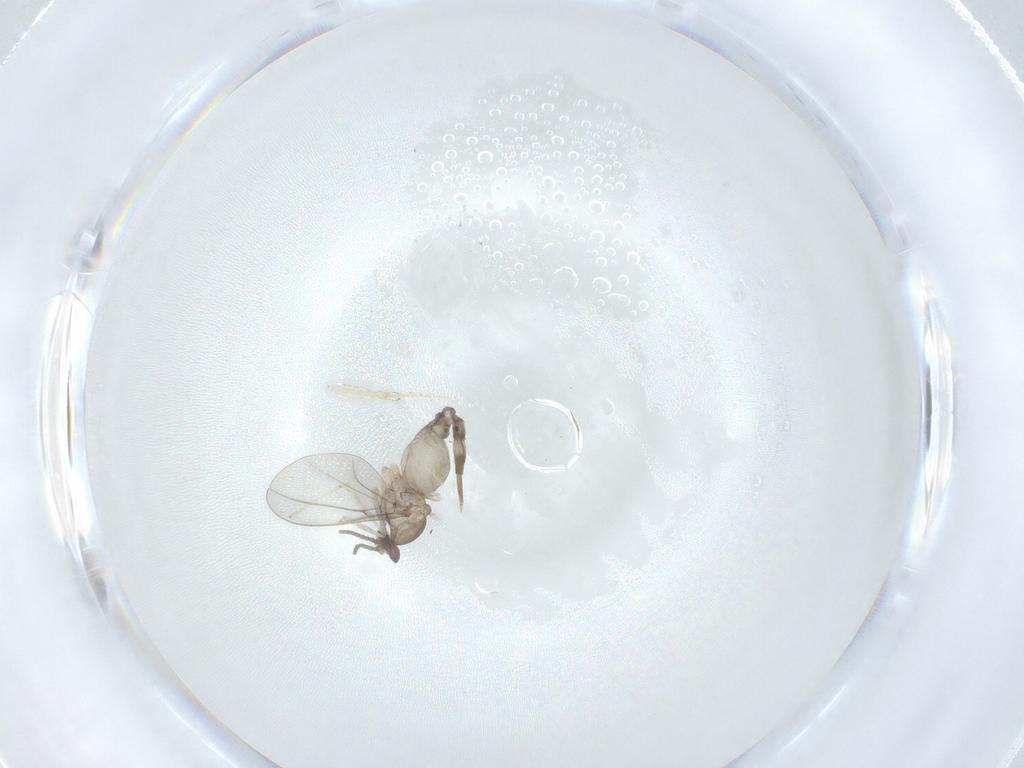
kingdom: Animalia
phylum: Arthropoda
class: Insecta
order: Diptera
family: Cecidomyiidae
